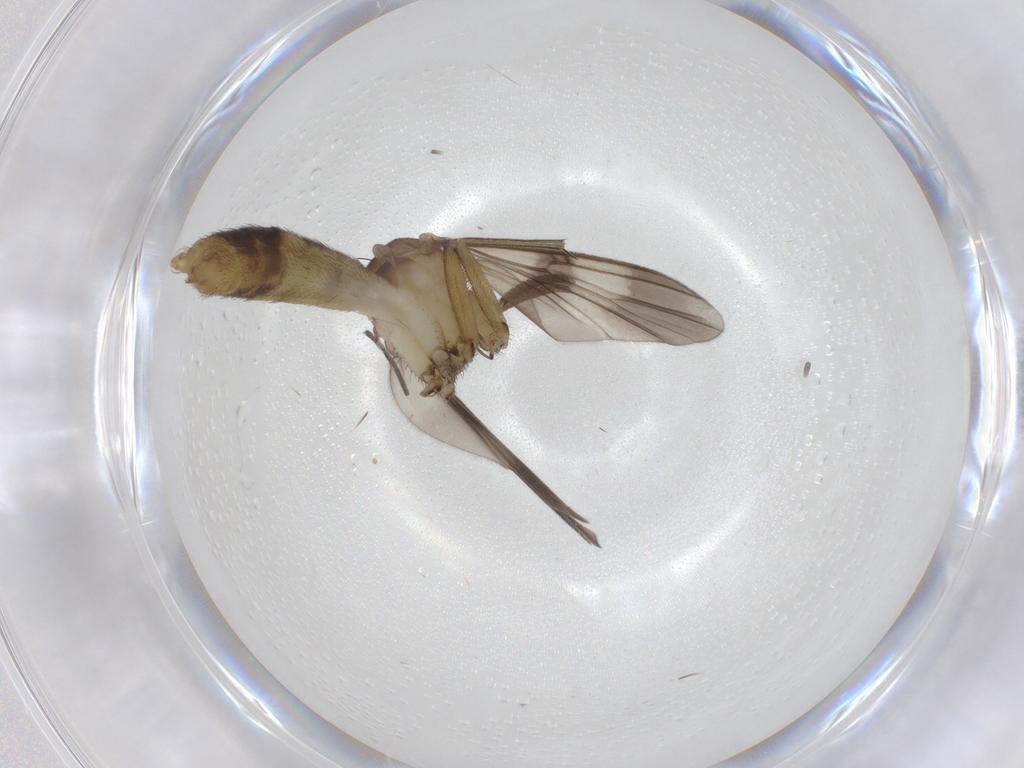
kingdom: Animalia
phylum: Arthropoda
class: Insecta
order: Diptera
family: Mycetophilidae
